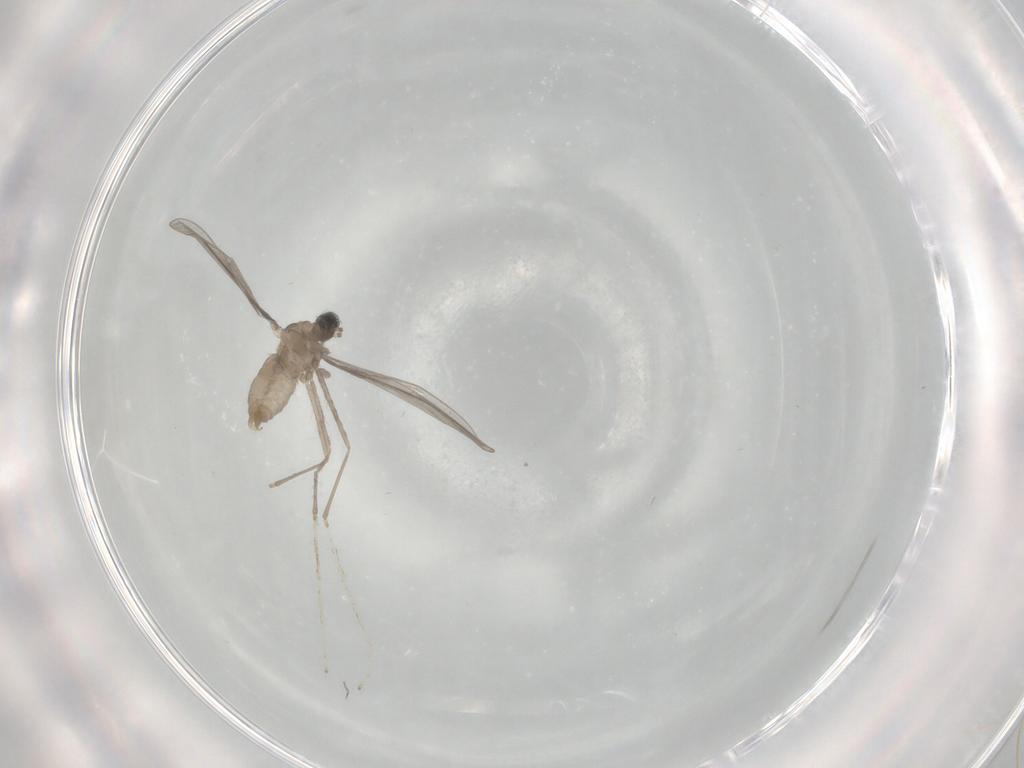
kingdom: Animalia
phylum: Arthropoda
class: Insecta
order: Diptera
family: Cecidomyiidae
